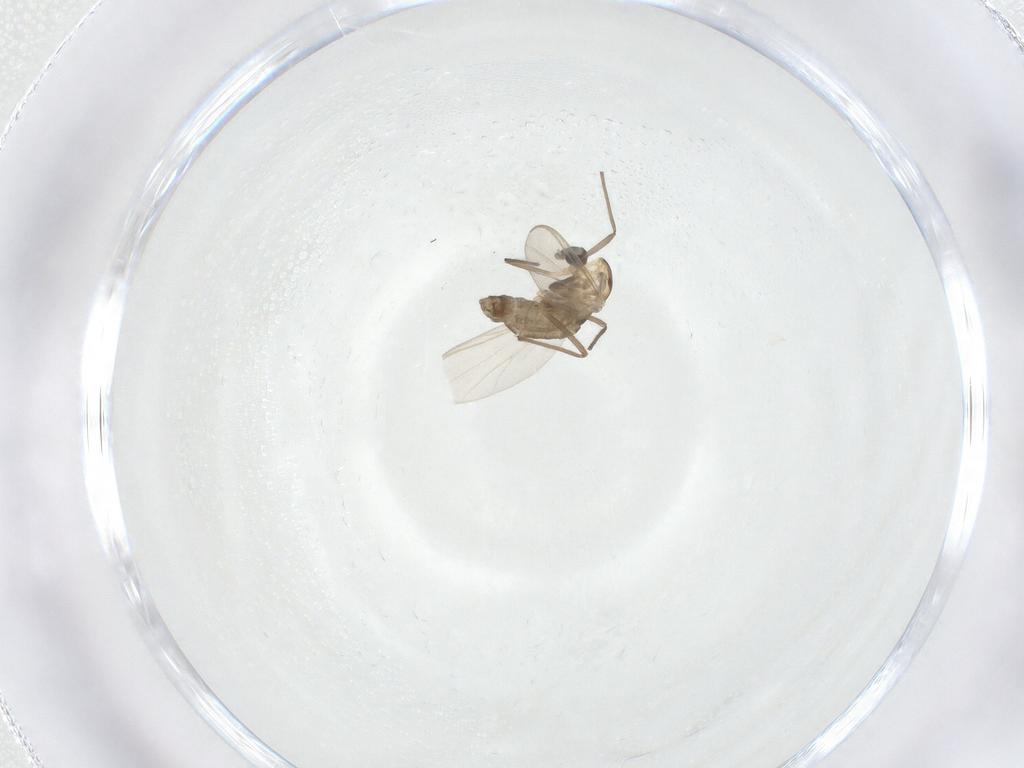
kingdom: Animalia
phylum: Arthropoda
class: Insecta
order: Diptera
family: Chironomidae
